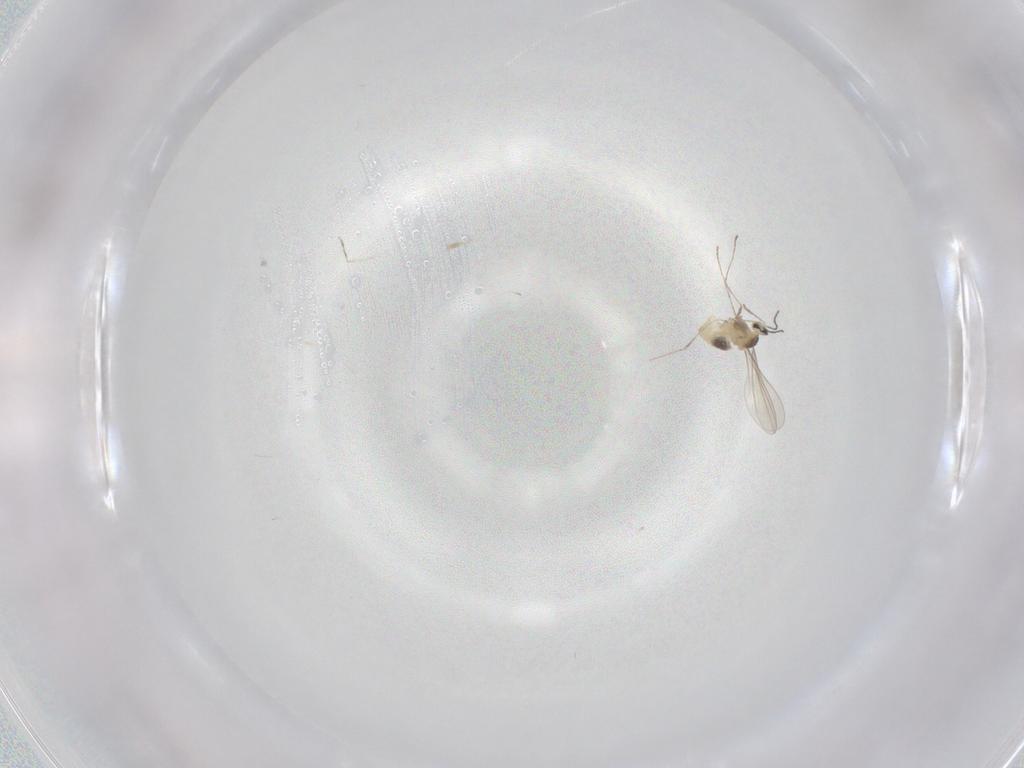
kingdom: Animalia
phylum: Arthropoda
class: Insecta
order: Diptera
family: Cecidomyiidae
